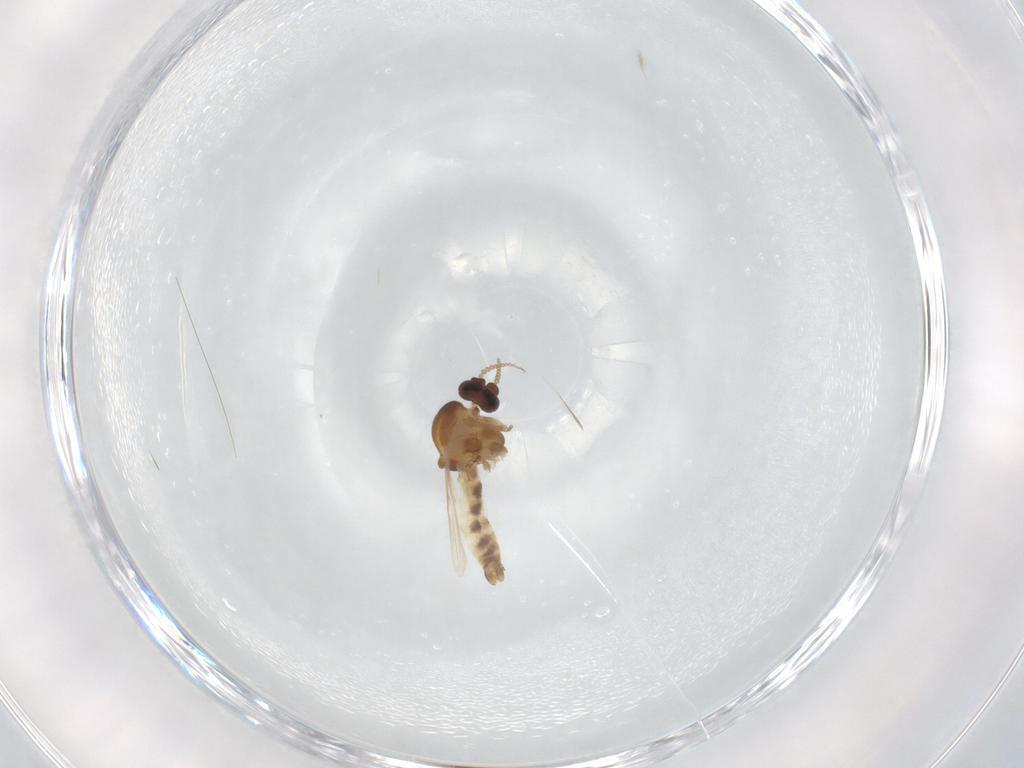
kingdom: Animalia
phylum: Arthropoda
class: Insecta
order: Diptera
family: Ceratopogonidae
